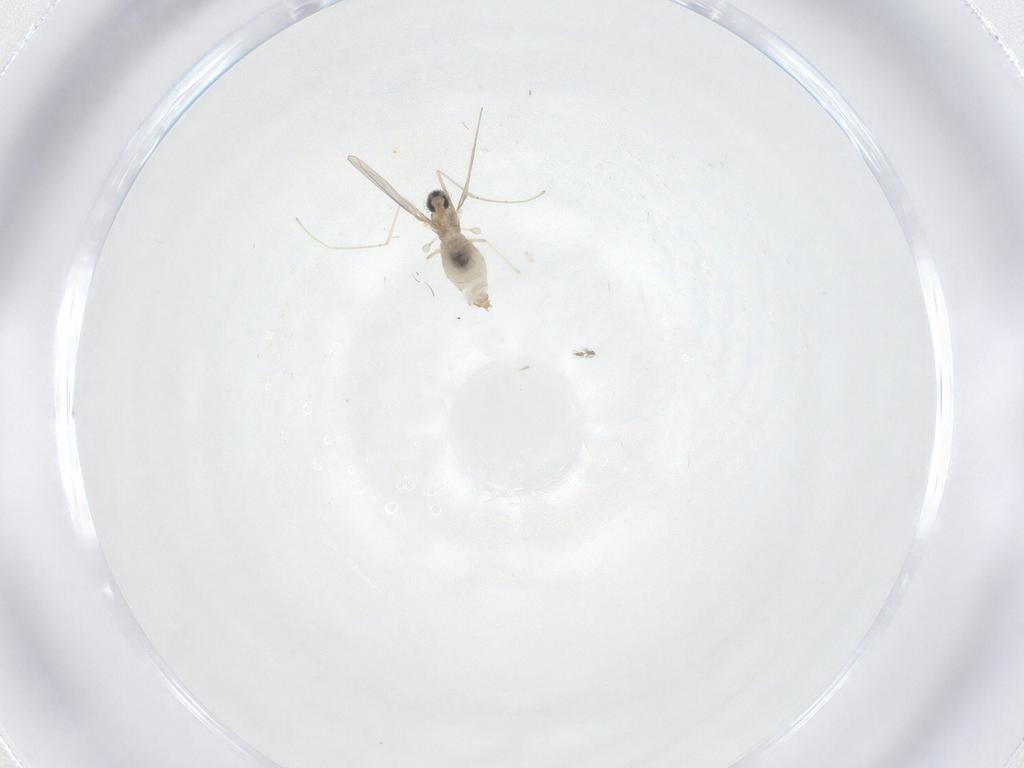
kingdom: Animalia
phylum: Arthropoda
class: Insecta
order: Diptera
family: Cecidomyiidae
